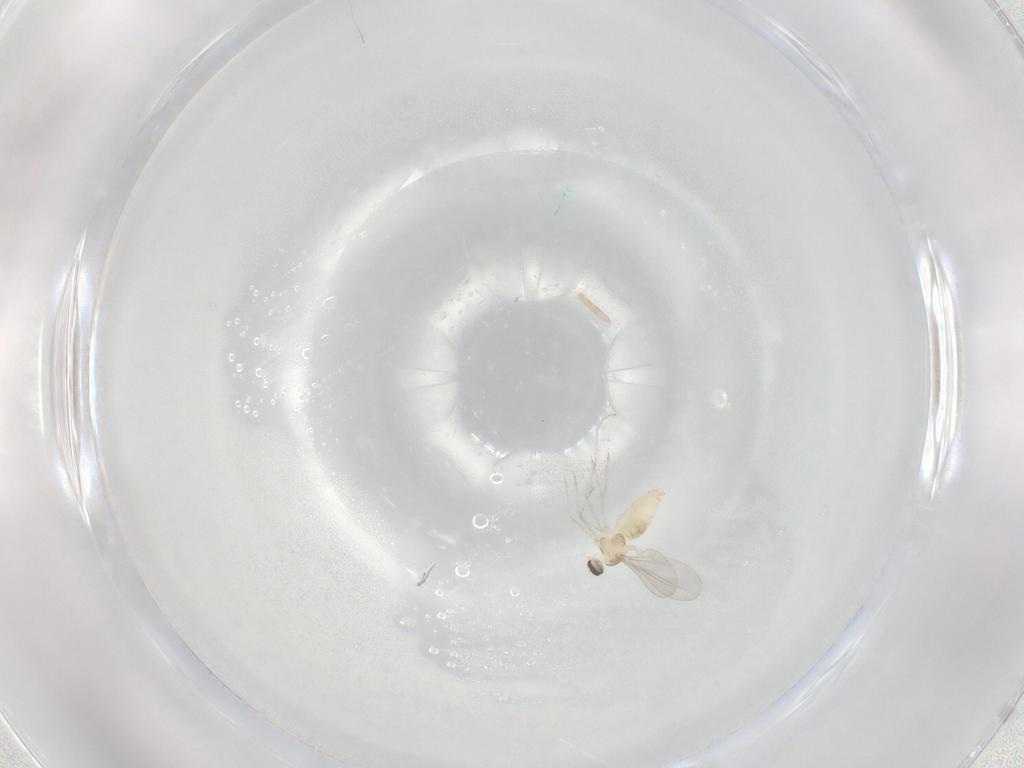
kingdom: Animalia
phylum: Arthropoda
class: Insecta
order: Diptera
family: Cecidomyiidae
